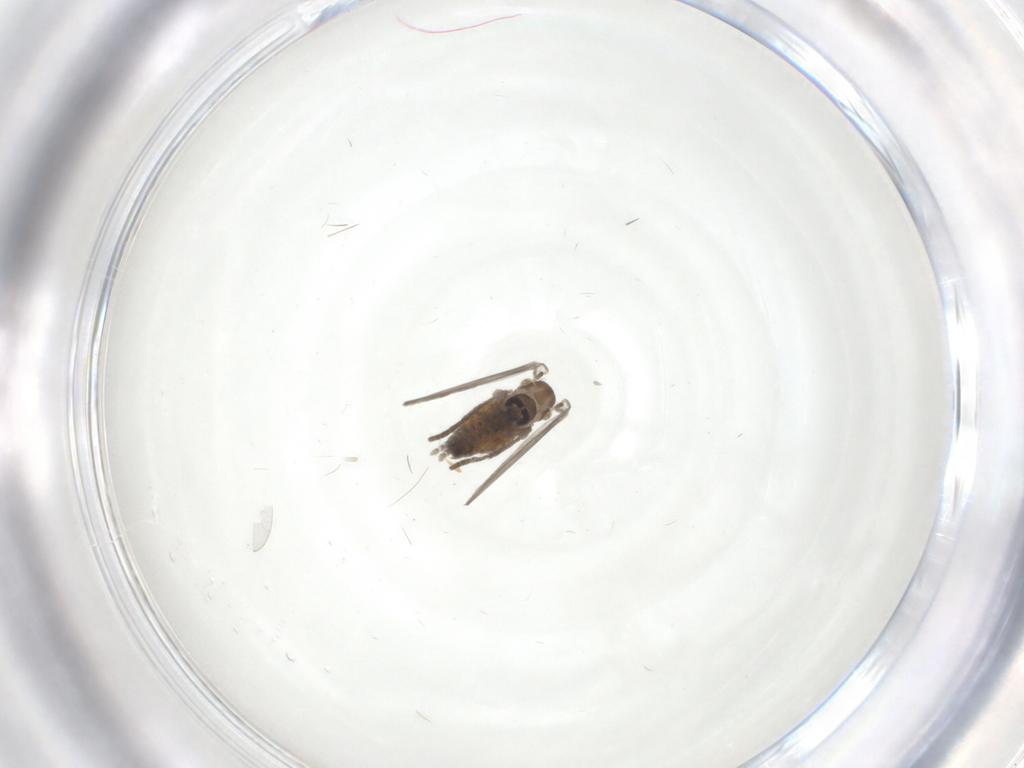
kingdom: Animalia
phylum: Arthropoda
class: Insecta
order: Diptera
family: Psychodidae
